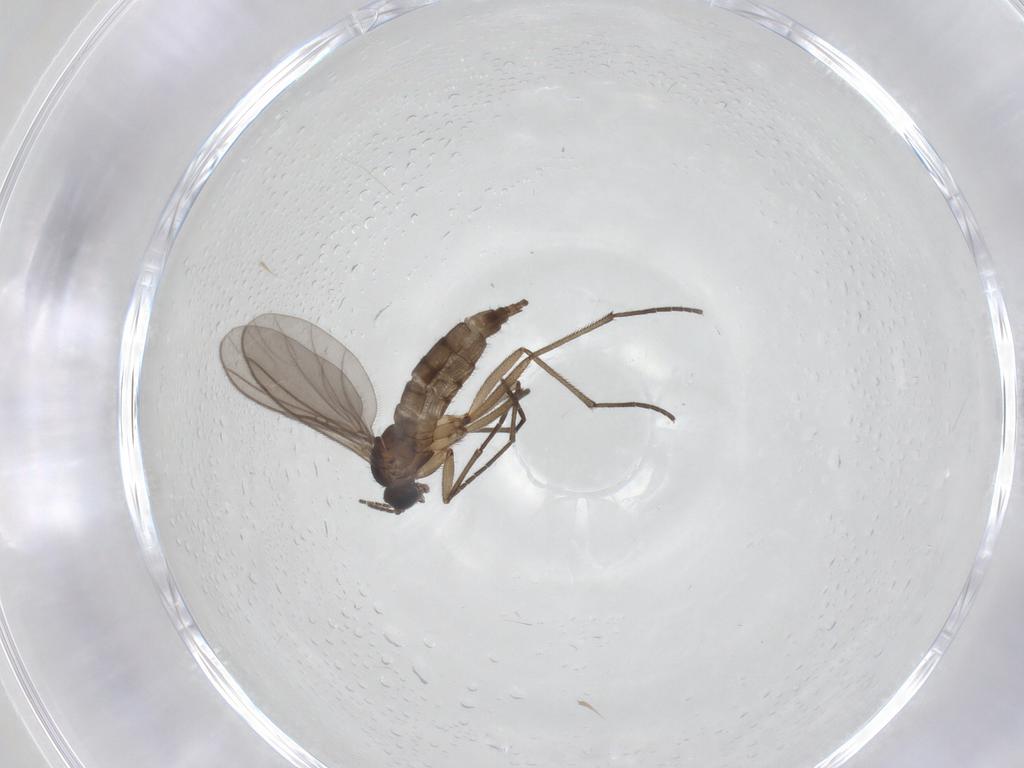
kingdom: Animalia
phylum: Arthropoda
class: Insecta
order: Diptera
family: Sciaridae
